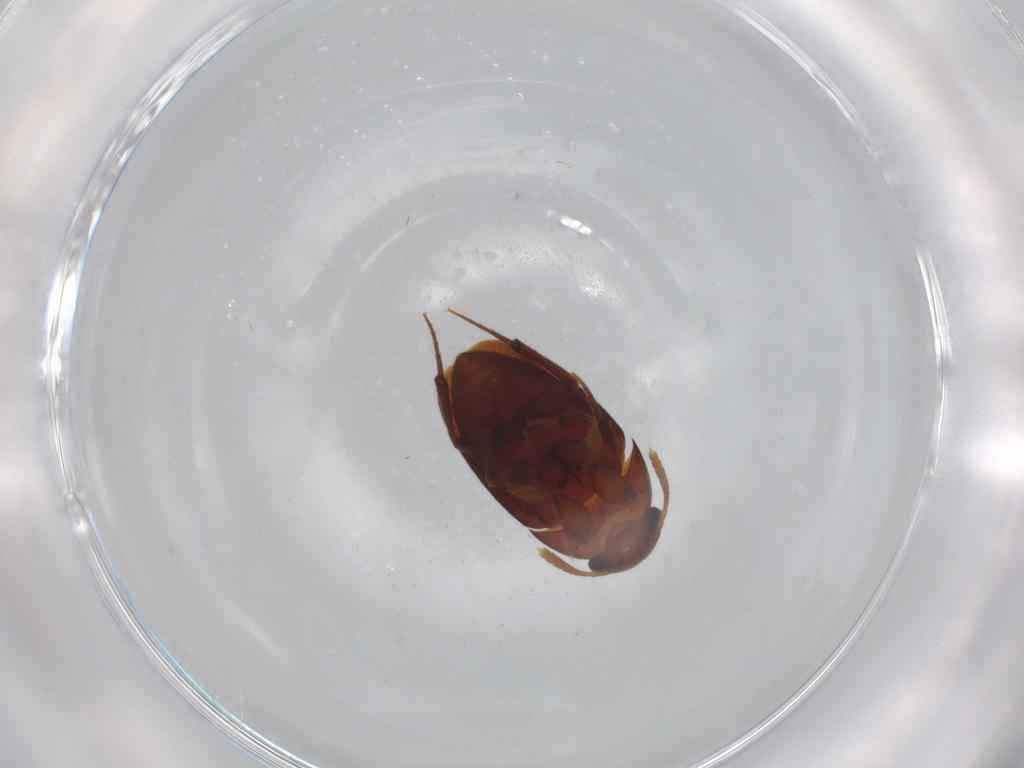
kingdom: Animalia
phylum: Arthropoda
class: Insecta
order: Coleoptera
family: Leiodidae
